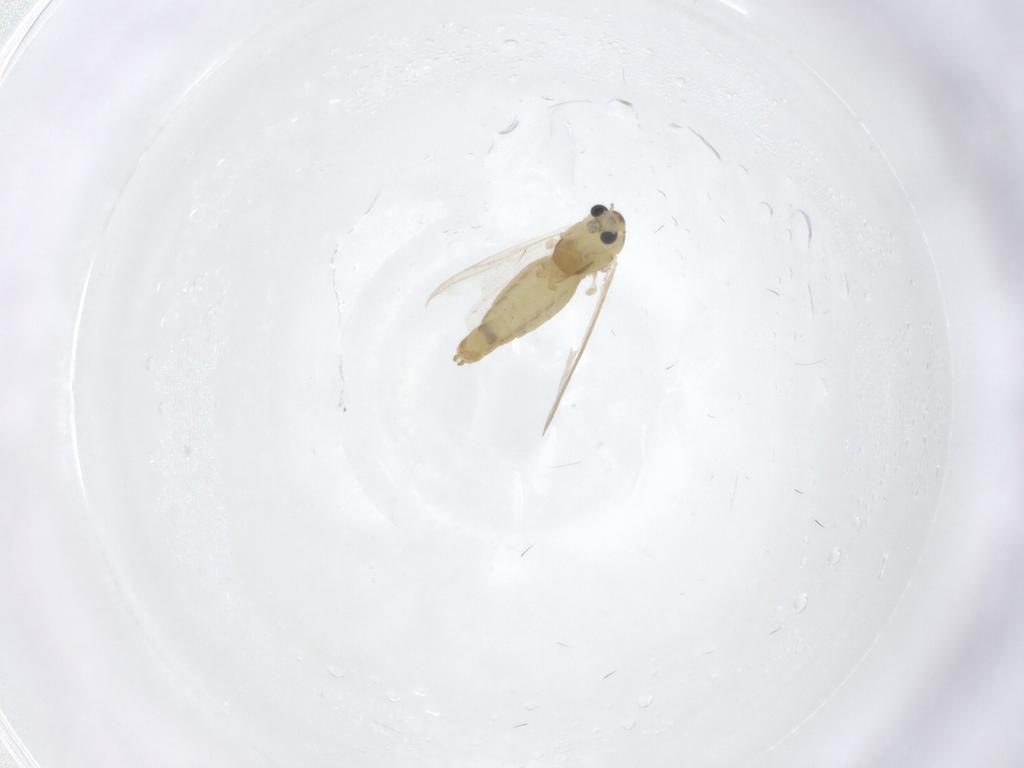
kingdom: Animalia
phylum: Arthropoda
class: Insecta
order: Diptera
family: Chironomidae
